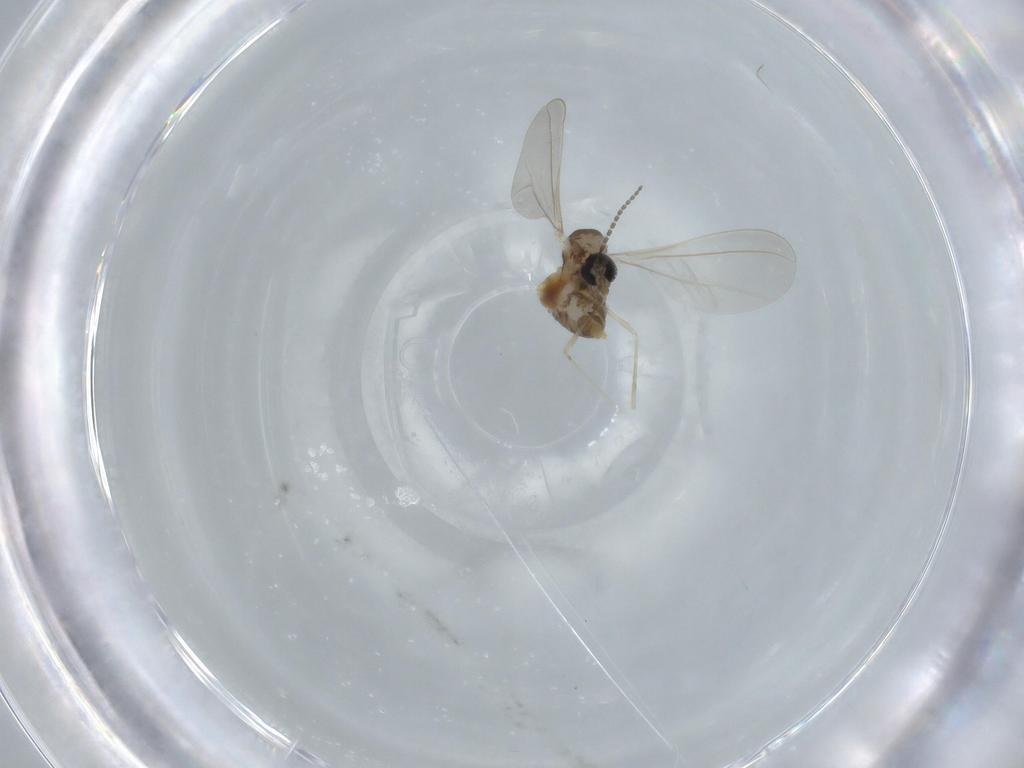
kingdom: Animalia
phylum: Arthropoda
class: Insecta
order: Diptera
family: Cecidomyiidae
